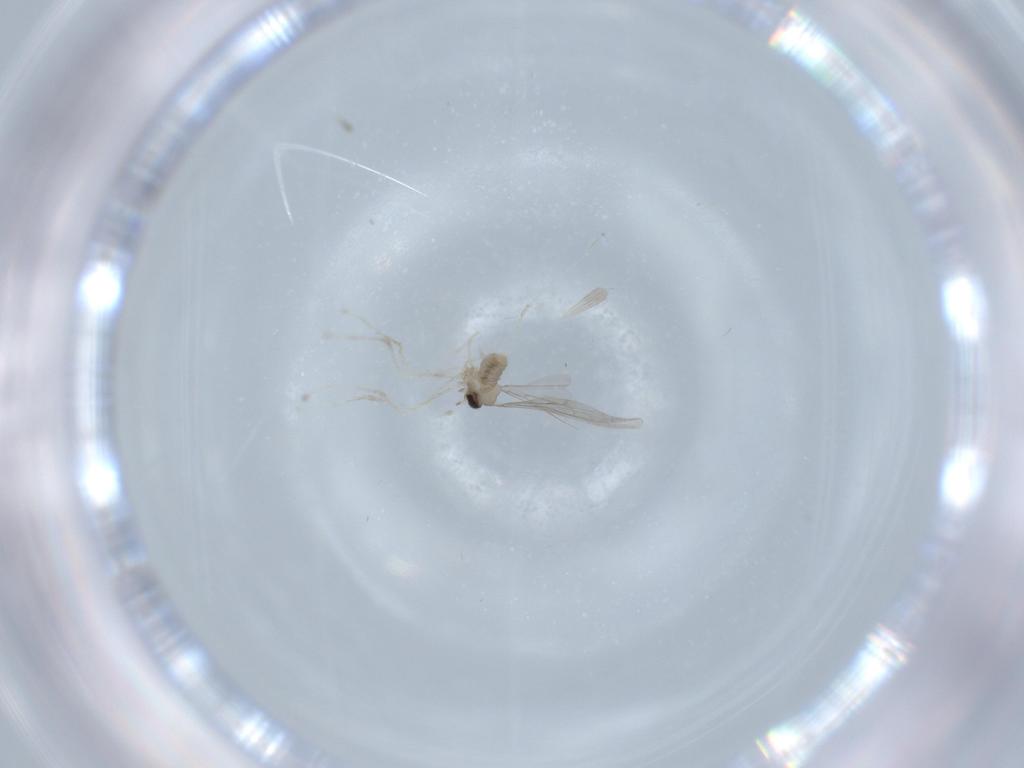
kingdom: Animalia
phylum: Arthropoda
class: Insecta
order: Diptera
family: Cecidomyiidae
